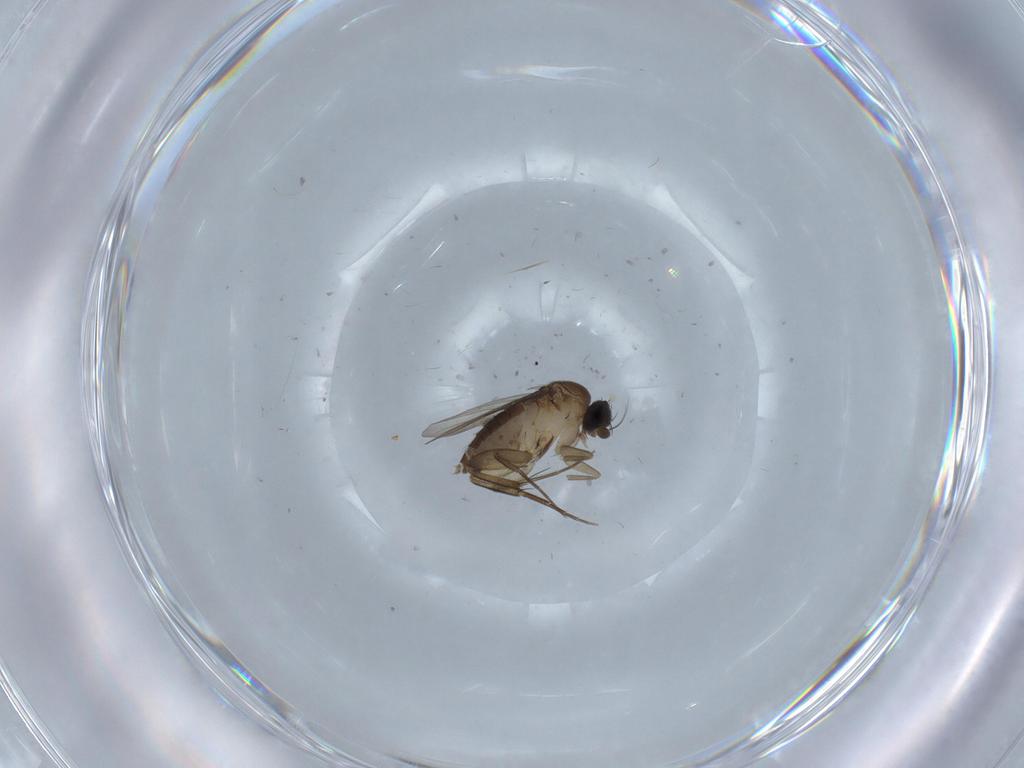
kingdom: Animalia
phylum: Arthropoda
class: Insecta
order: Diptera
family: Phoridae
